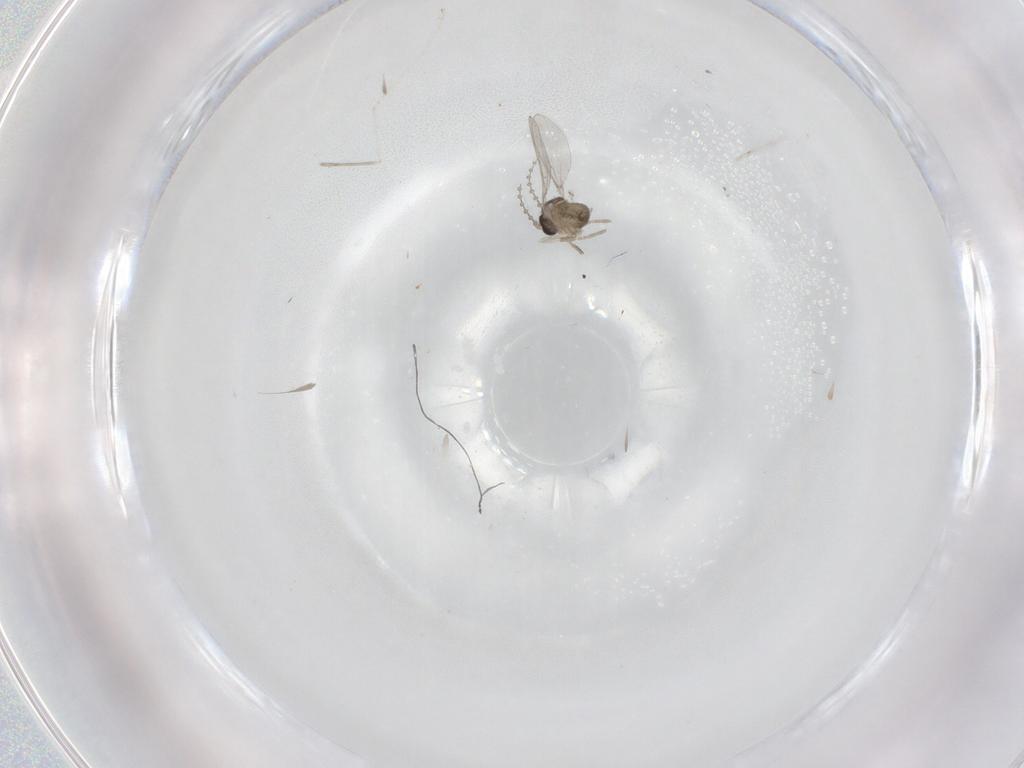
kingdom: Animalia
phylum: Arthropoda
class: Insecta
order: Diptera
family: Cecidomyiidae
